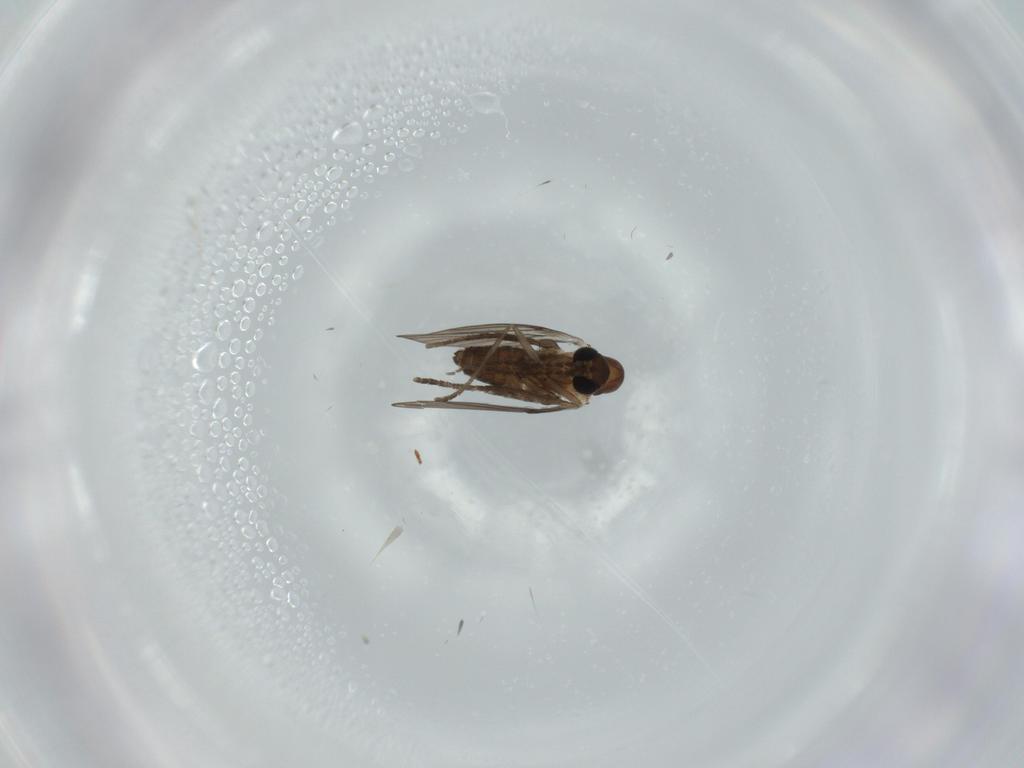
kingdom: Animalia
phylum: Arthropoda
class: Insecta
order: Diptera
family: Psychodidae
